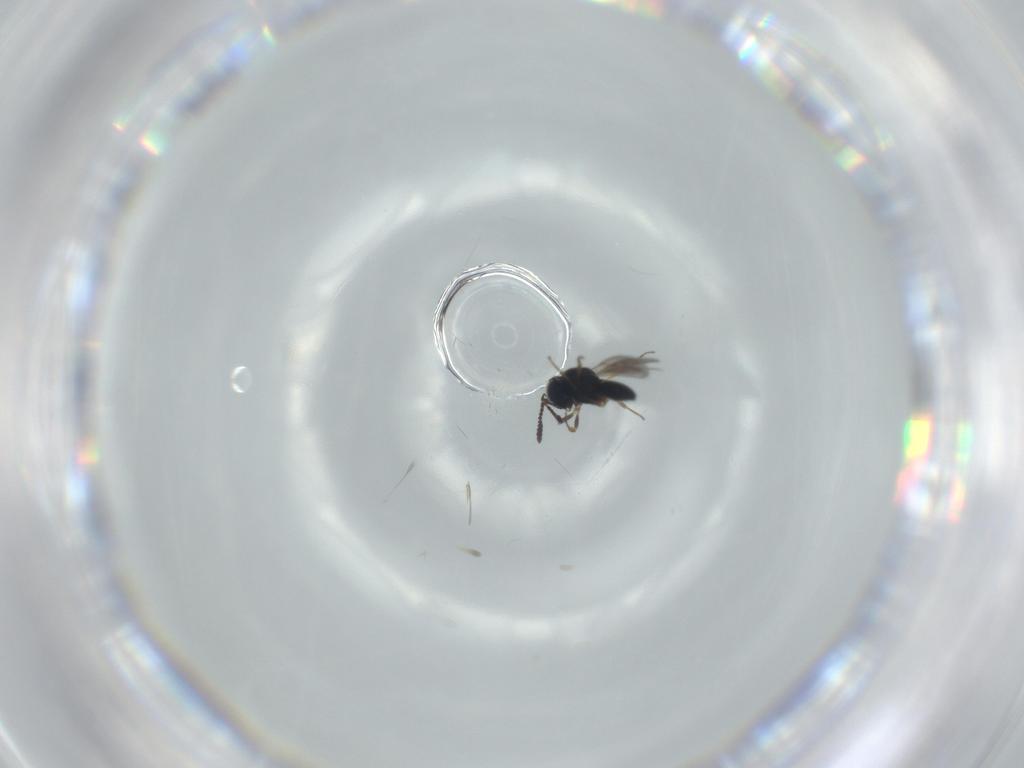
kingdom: Animalia
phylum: Arthropoda
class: Insecta
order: Hymenoptera
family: Scelionidae
